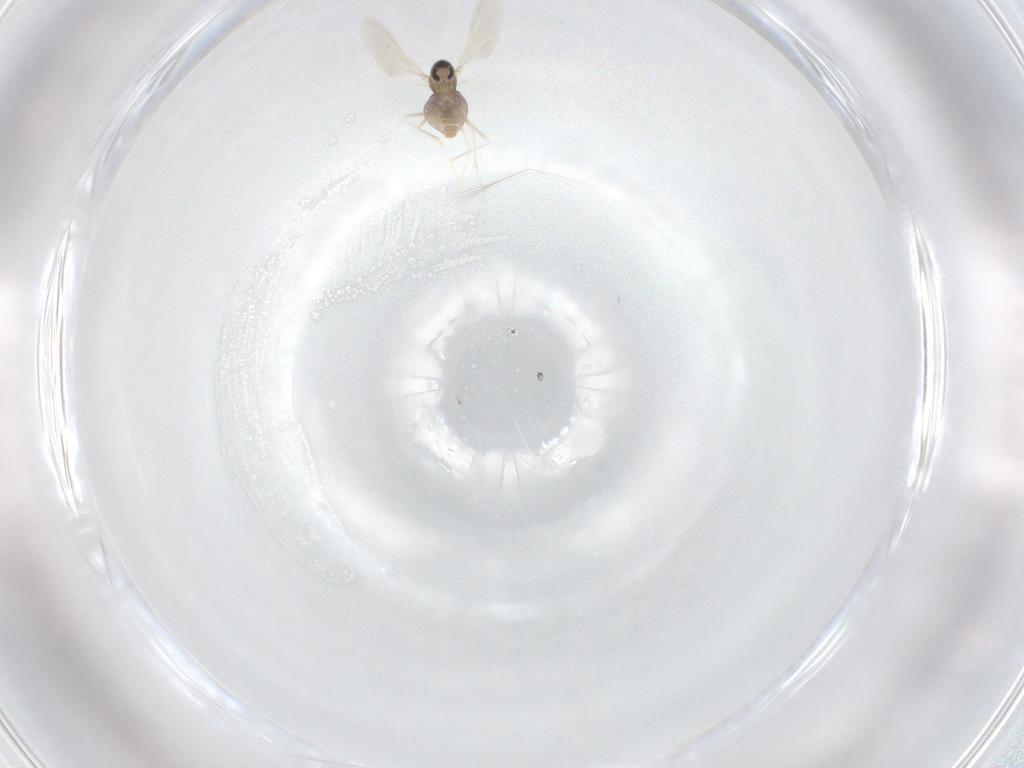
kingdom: Animalia
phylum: Arthropoda
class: Insecta
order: Diptera
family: Cecidomyiidae
